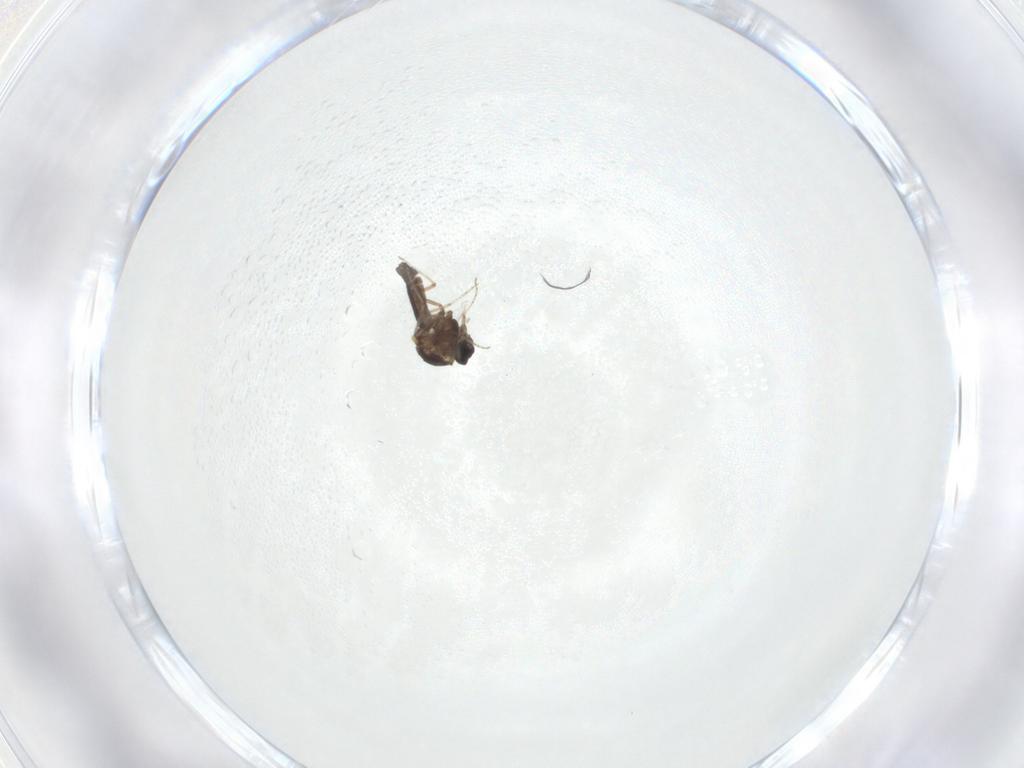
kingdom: Animalia
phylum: Arthropoda
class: Insecta
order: Diptera
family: Ceratopogonidae
